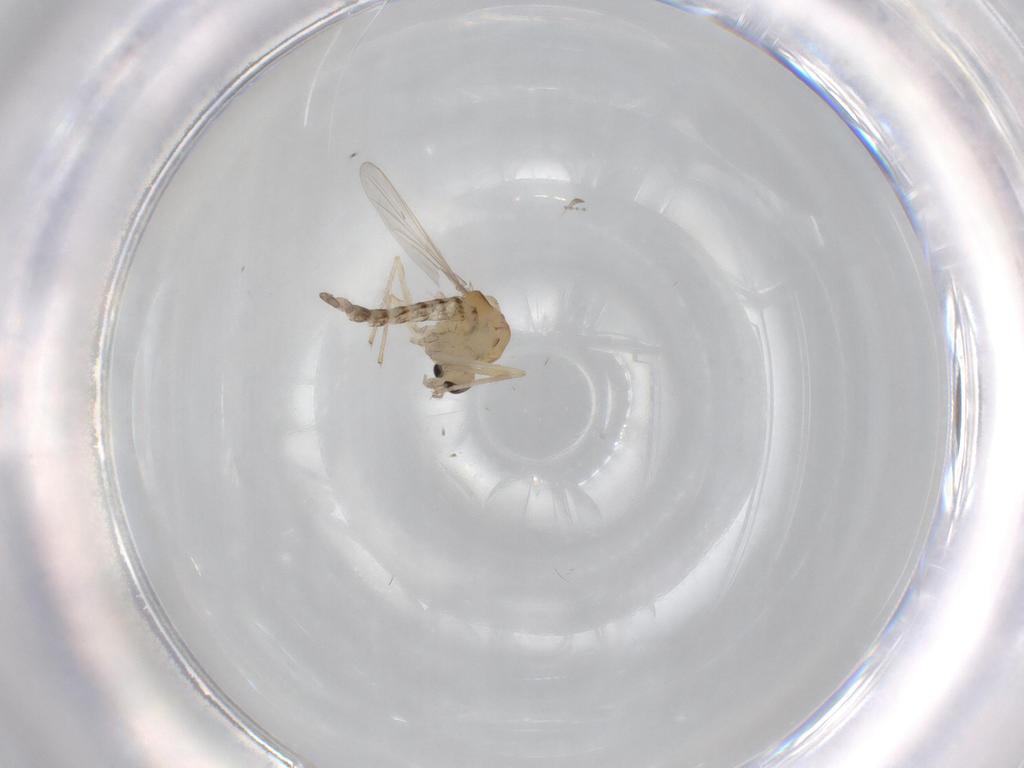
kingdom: Animalia
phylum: Arthropoda
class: Insecta
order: Diptera
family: Chironomidae
